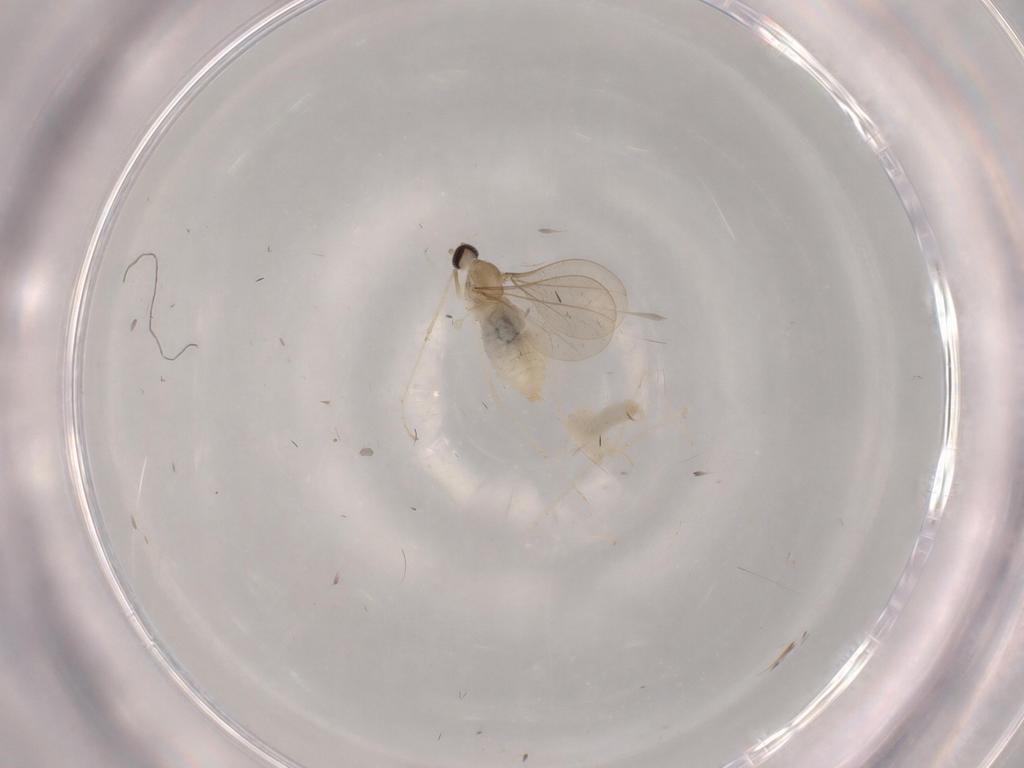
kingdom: Animalia
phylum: Arthropoda
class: Insecta
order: Diptera
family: Cecidomyiidae
